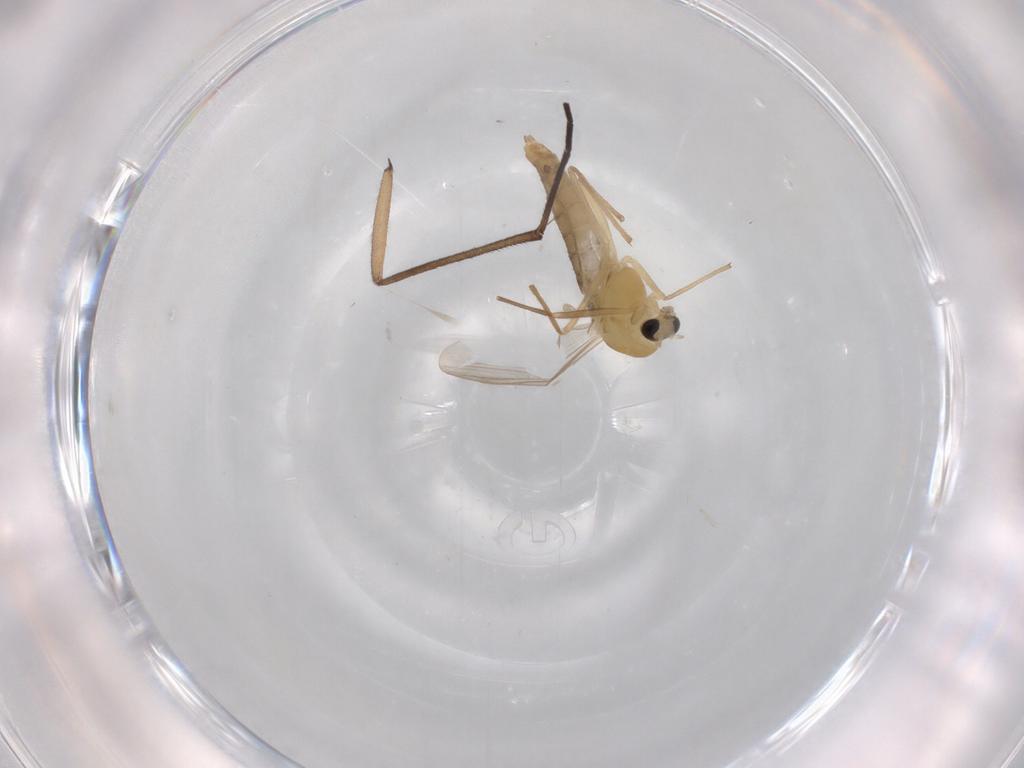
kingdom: Animalia
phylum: Arthropoda
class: Insecta
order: Diptera
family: Chironomidae
